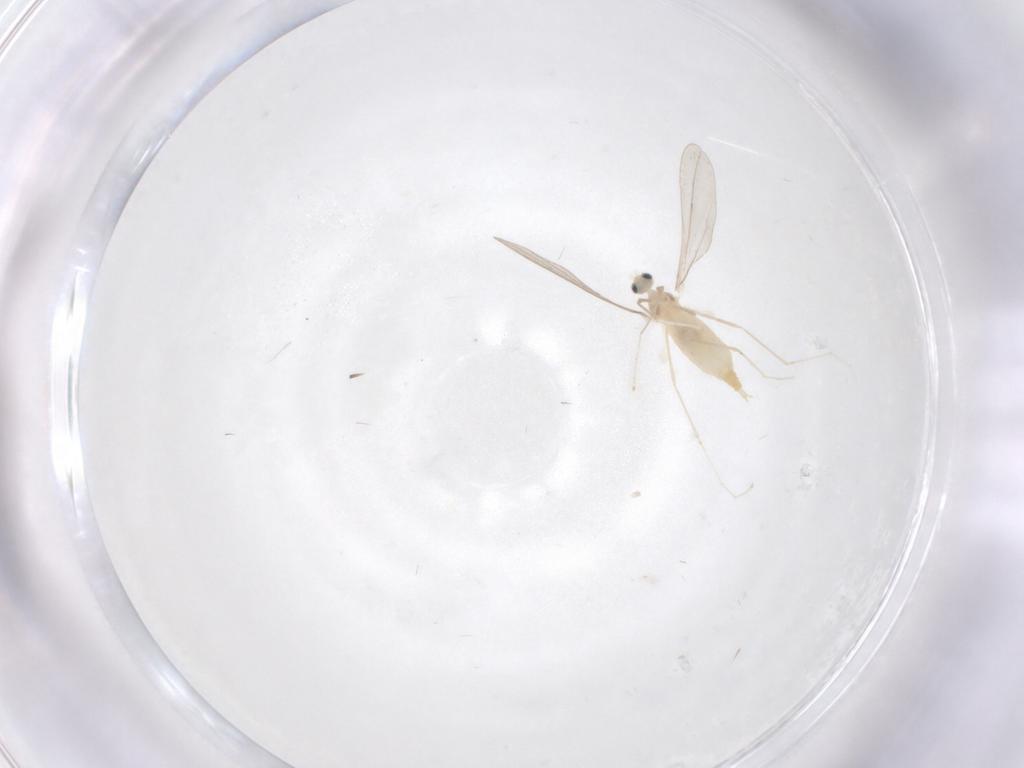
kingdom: Animalia
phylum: Arthropoda
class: Insecta
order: Diptera
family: Cecidomyiidae
